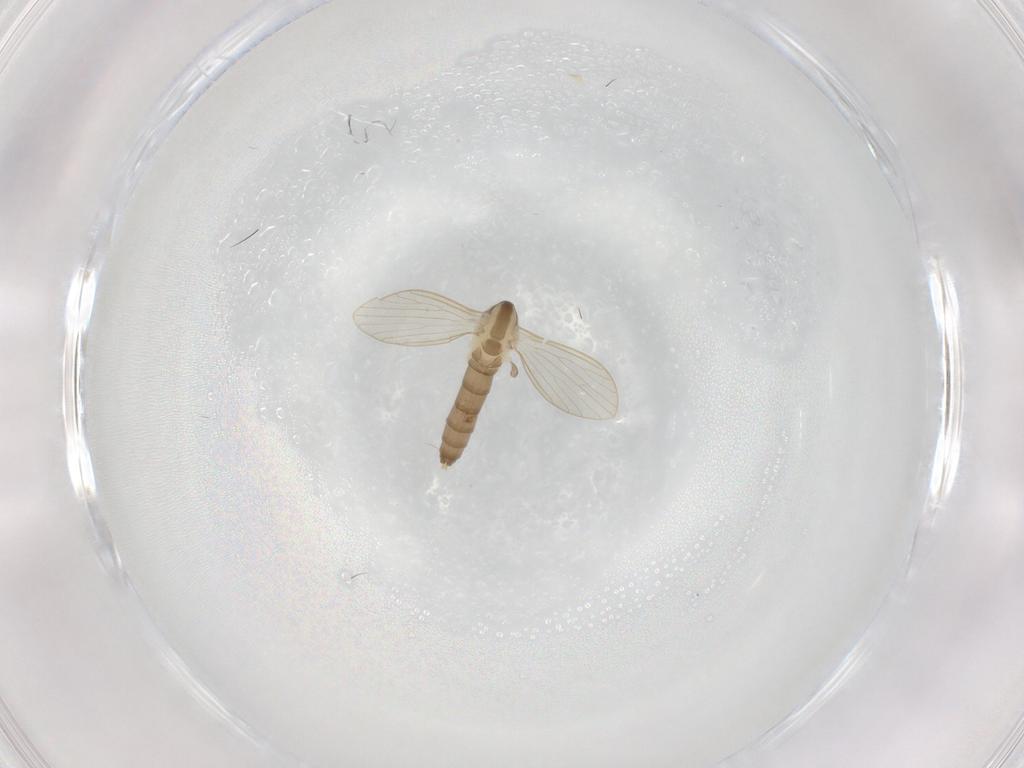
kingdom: Animalia
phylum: Arthropoda
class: Insecta
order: Diptera
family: Psychodidae
